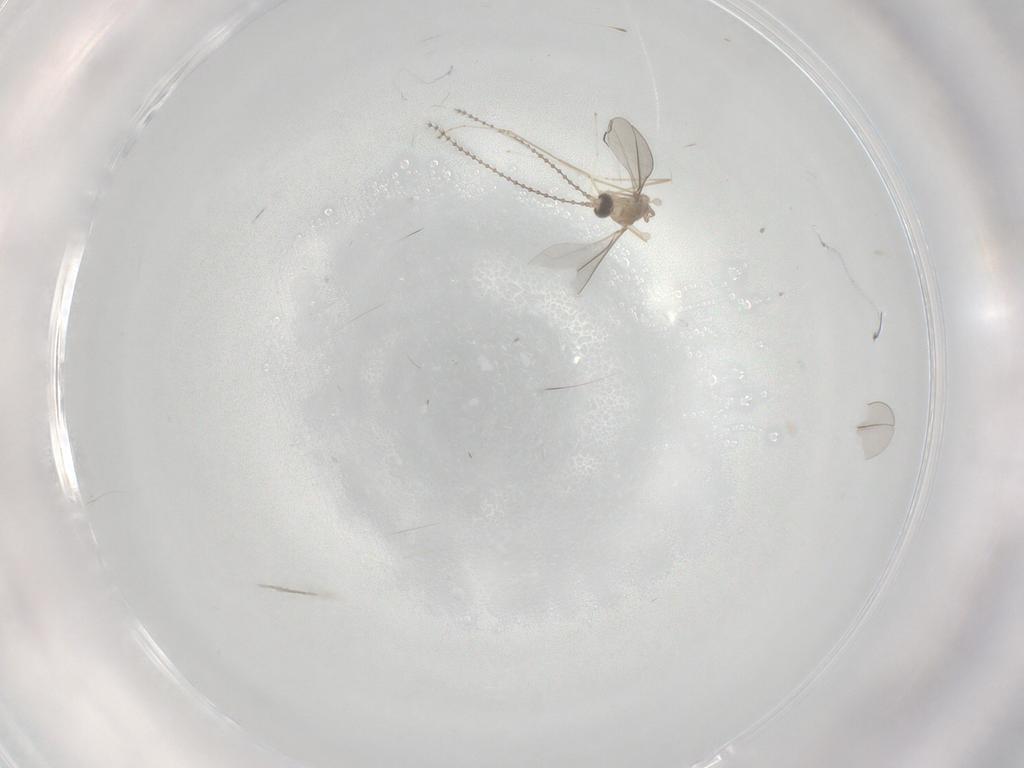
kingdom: Animalia
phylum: Arthropoda
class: Insecta
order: Diptera
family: Cecidomyiidae
